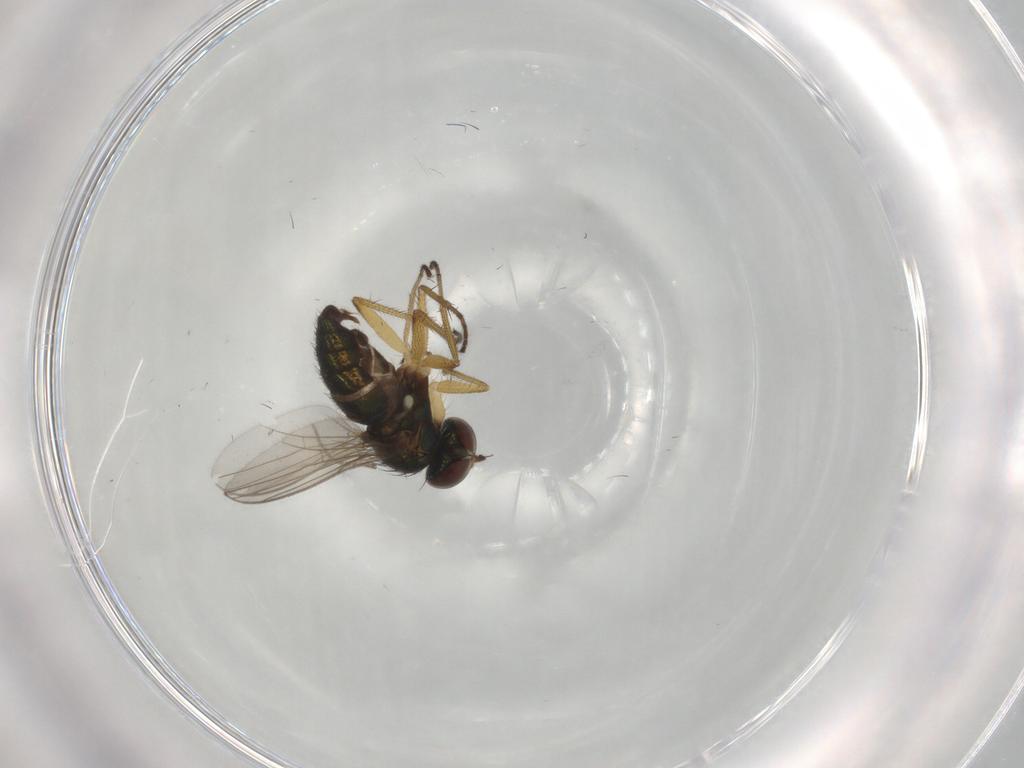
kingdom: Animalia
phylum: Arthropoda
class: Insecta
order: Diptera
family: Sciaridae
